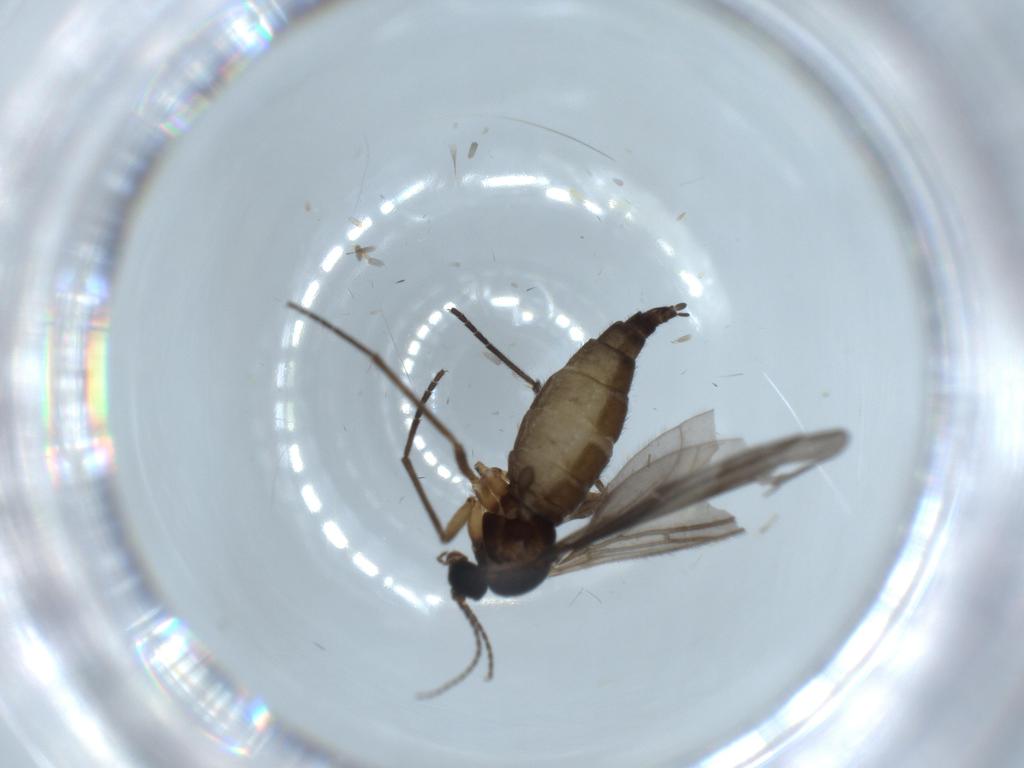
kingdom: Animalia
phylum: Arthropoda
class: Insecta
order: Diptera
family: Sciaridae
